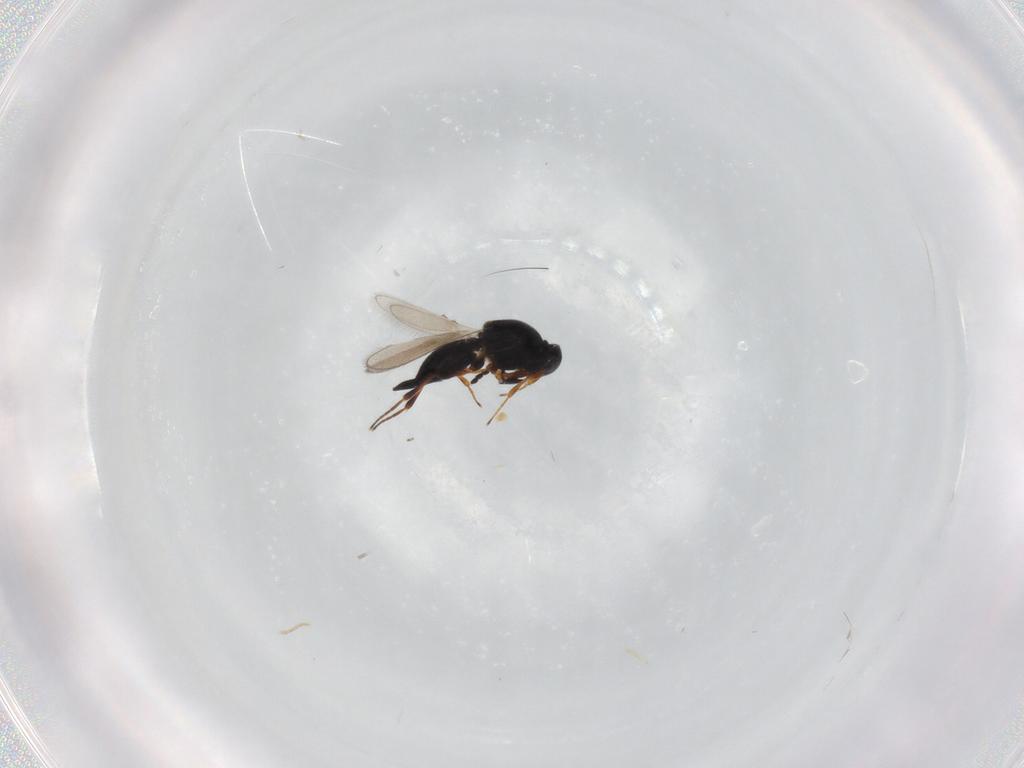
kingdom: Animalia
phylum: Arthropoda
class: Insecta
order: Hymenoptera
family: Platygastridae
